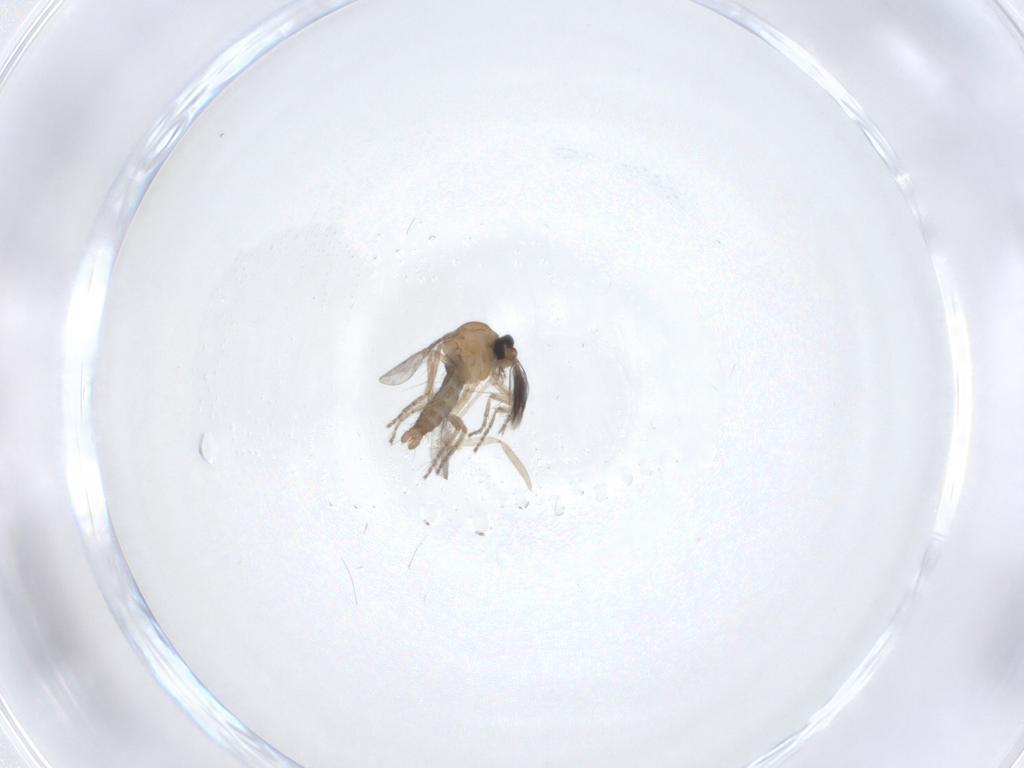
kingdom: Animalia
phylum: Arthropoda
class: Insecta
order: Diptera
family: Cecidomyiidae
